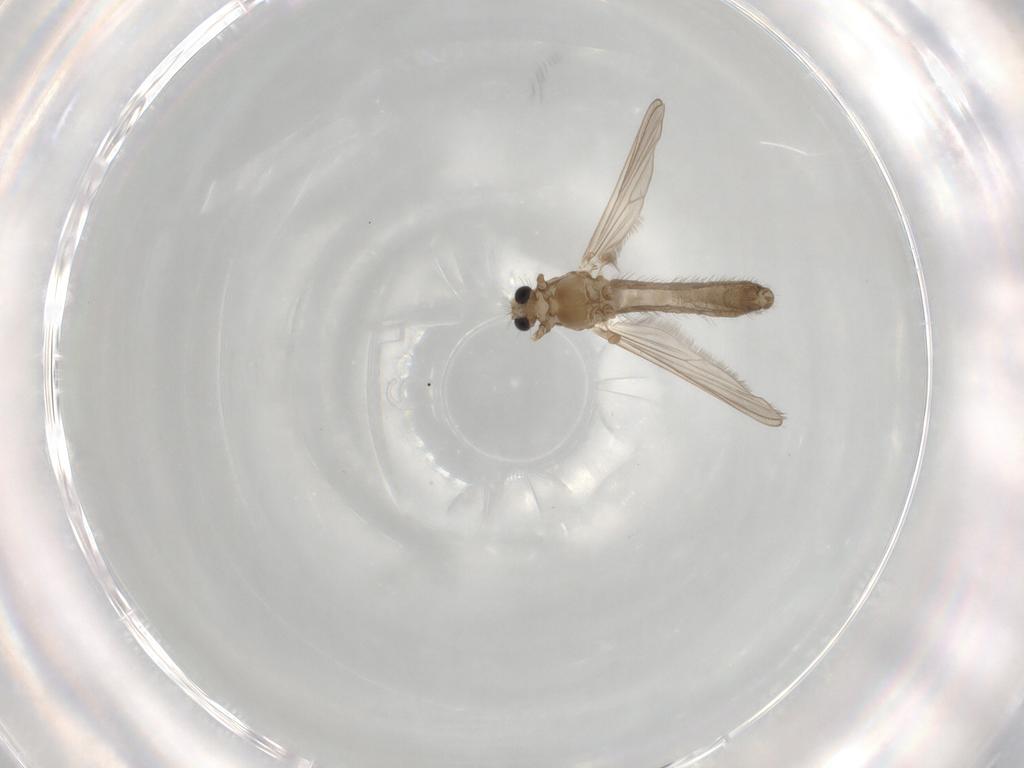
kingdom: Animalia
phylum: Arthropoda
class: Insecta
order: Diptera
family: Chironomidae
